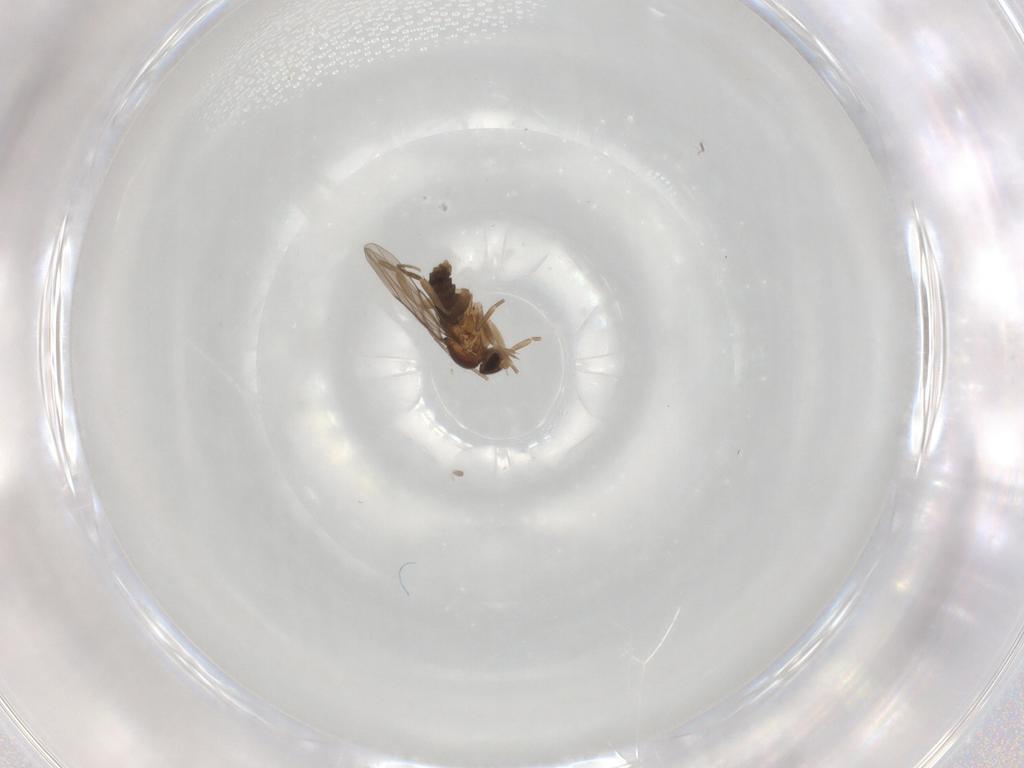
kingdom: Animalia
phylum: Arthropoda
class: Insecta
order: Diptera
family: Phoridae
